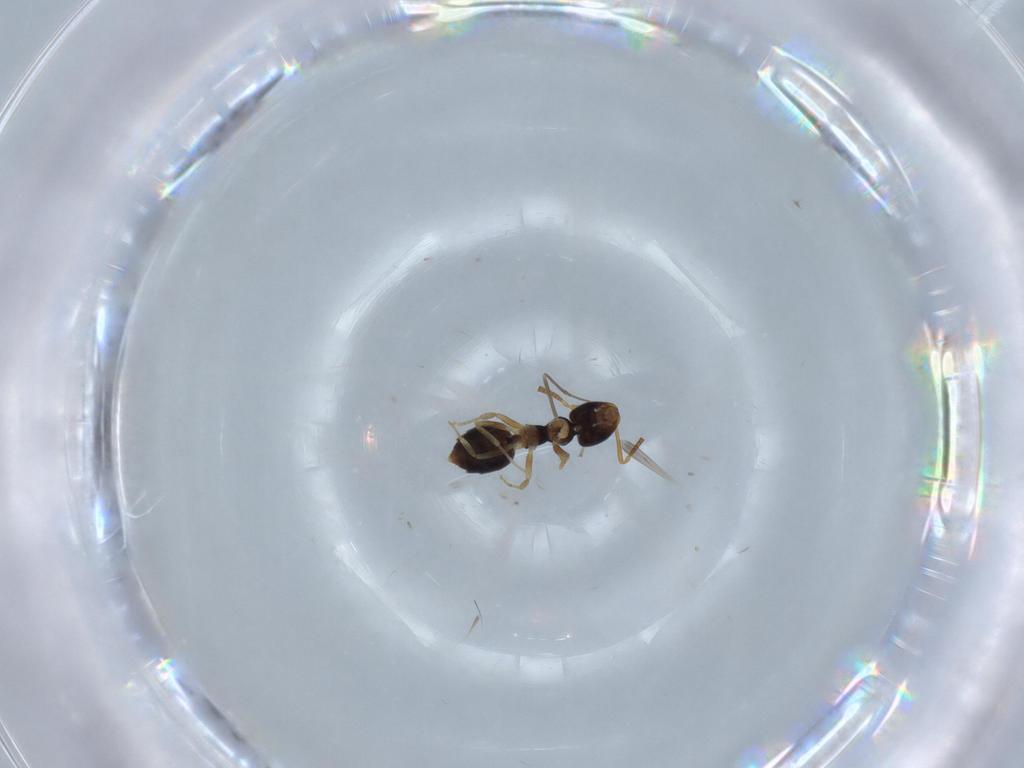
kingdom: Animalia
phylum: Arthropoda
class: Insecta
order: Hymenoptera
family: Formicidae
